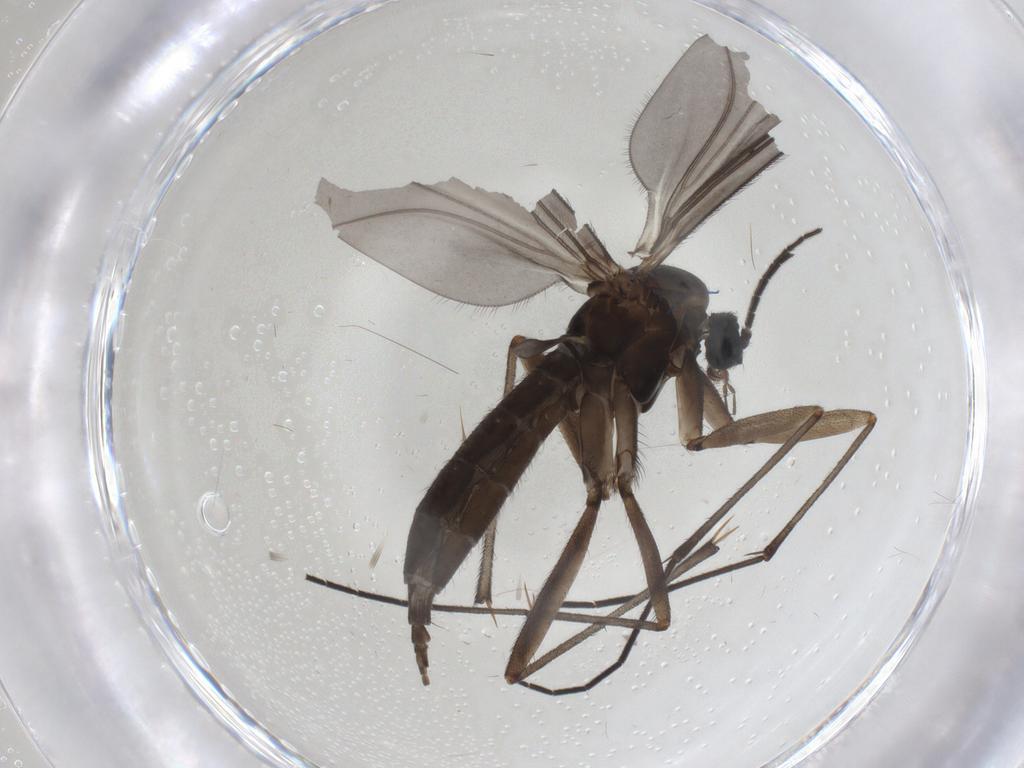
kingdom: Animalia
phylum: Arthropoda
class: Insecta
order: Diptera
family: Sciaridae
